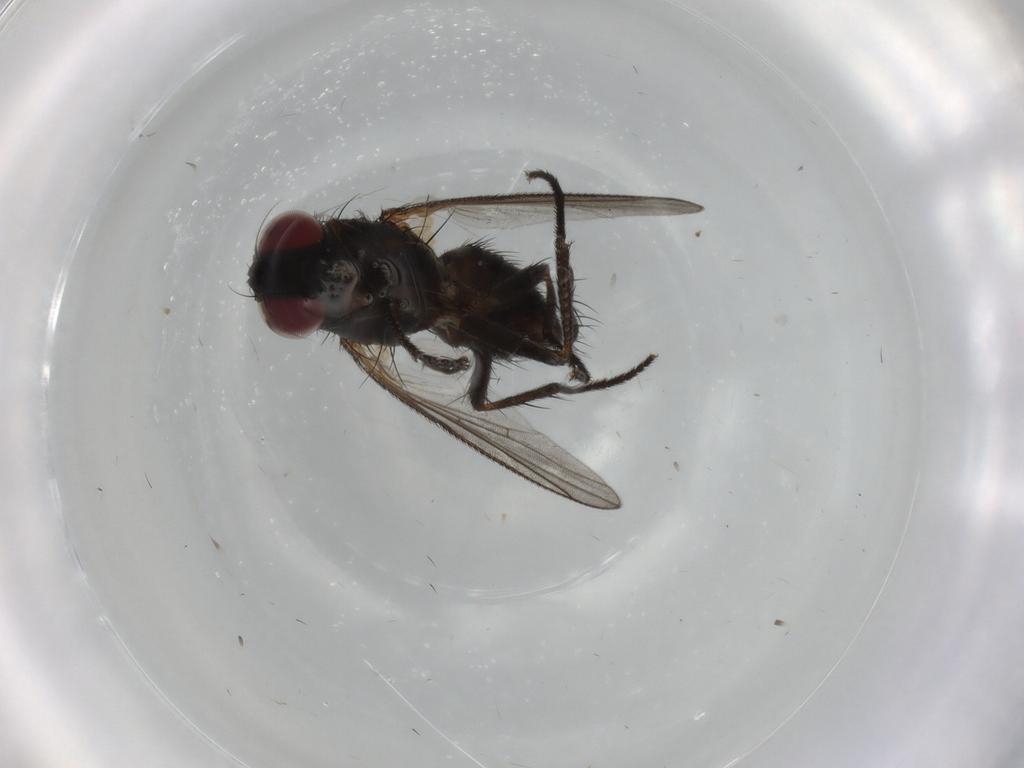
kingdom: Animalia
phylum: Arthropoda
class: Insecta
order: Diptera
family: Muscidae
